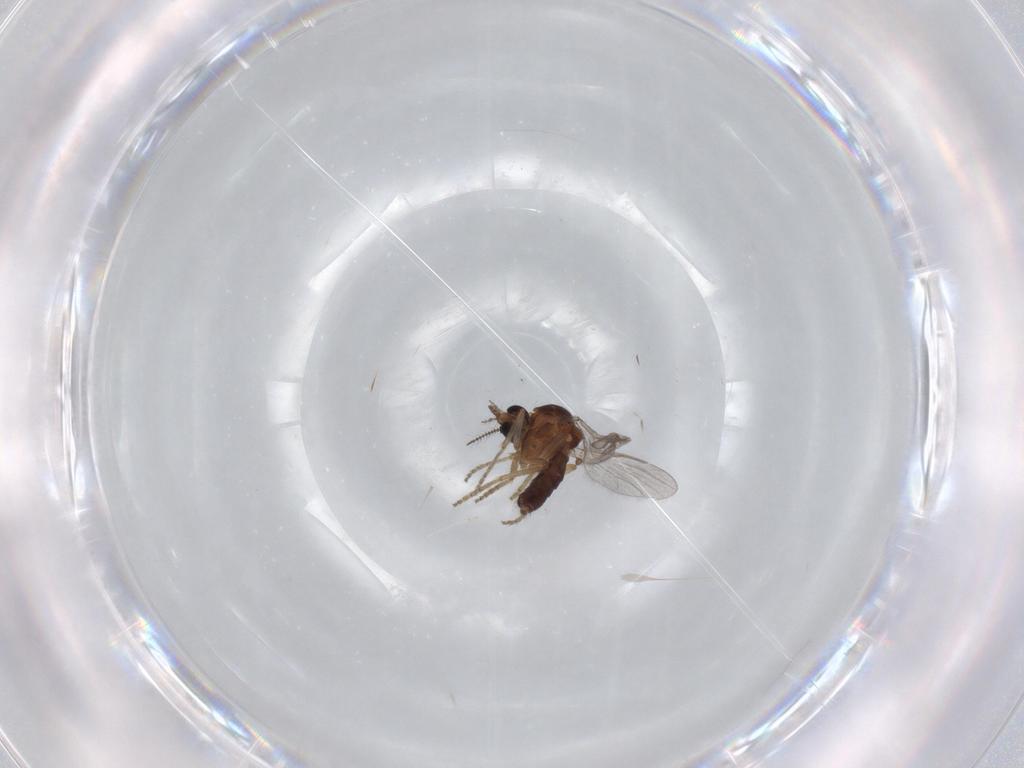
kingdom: Animalia
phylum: Arthropoda
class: Insecta
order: Diptera
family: Ceratopogonidae
